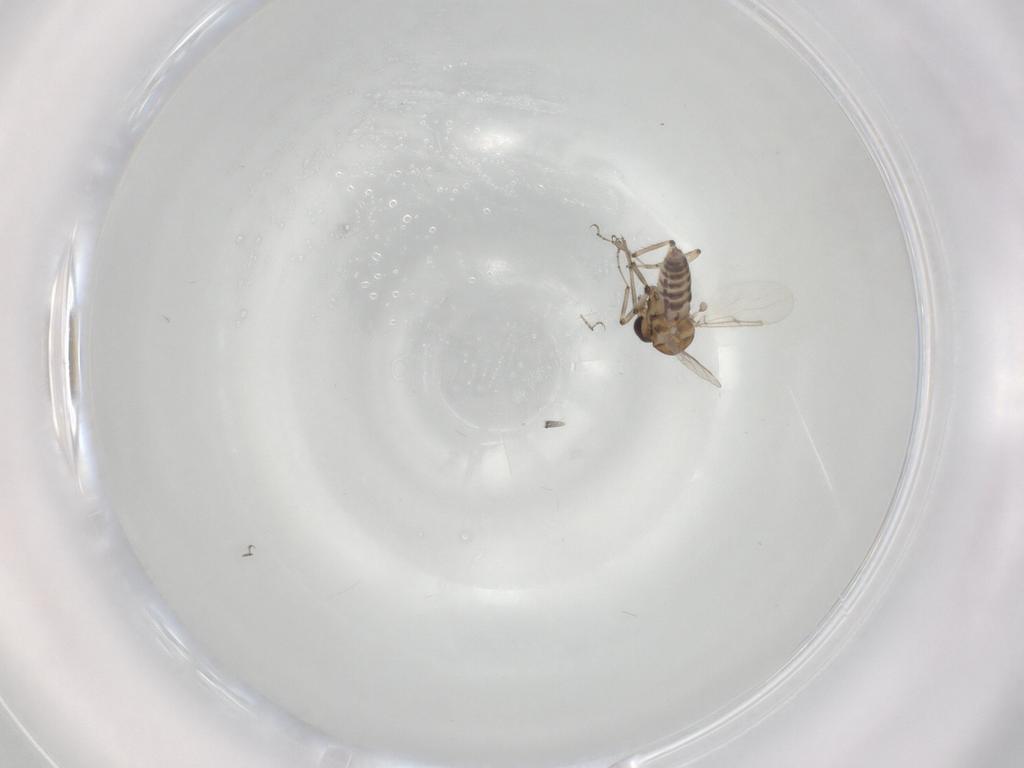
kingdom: Animalia
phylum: Arthropoda
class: Insecta
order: Diptera
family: Ceratopogonidae
